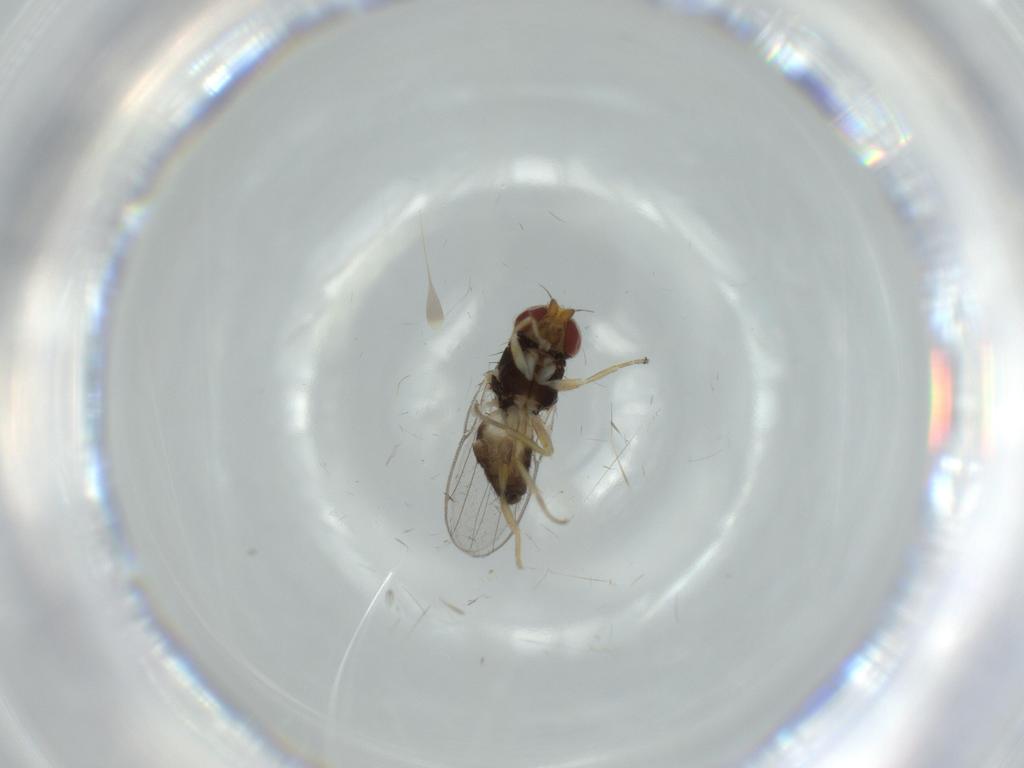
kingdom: Animalia
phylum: Arthropoda
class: Insecta
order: Diptera
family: Chloropidae
